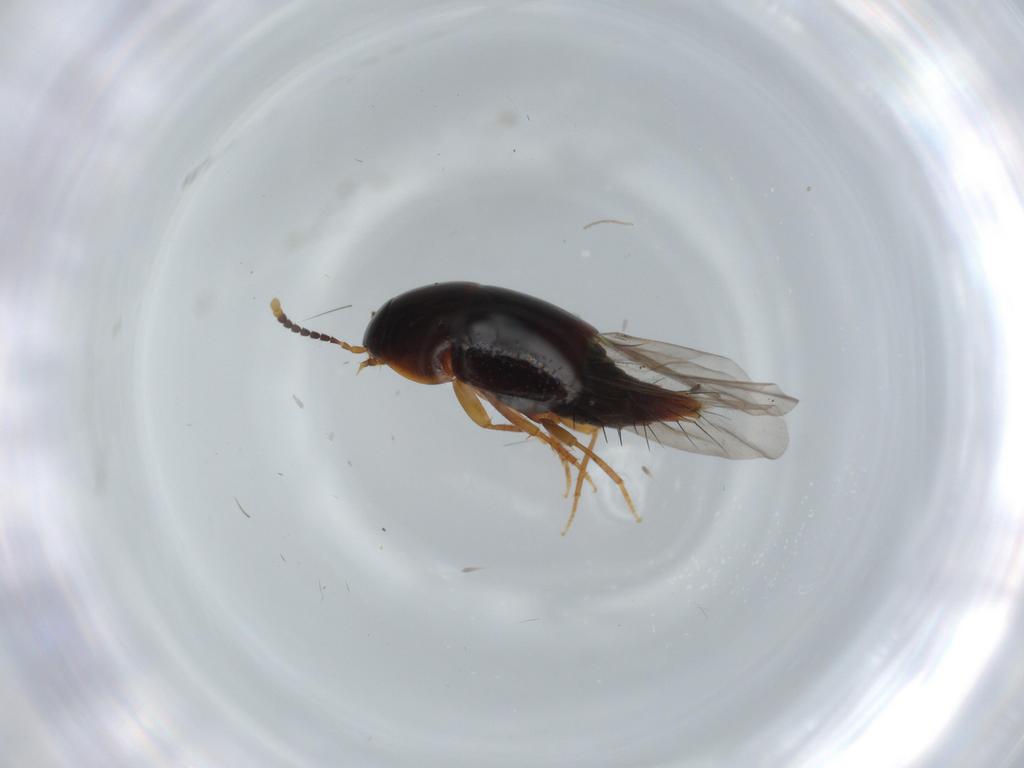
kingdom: Animalia
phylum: Arthropoda
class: Insecta
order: Coleoptera
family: Staphylinidae
